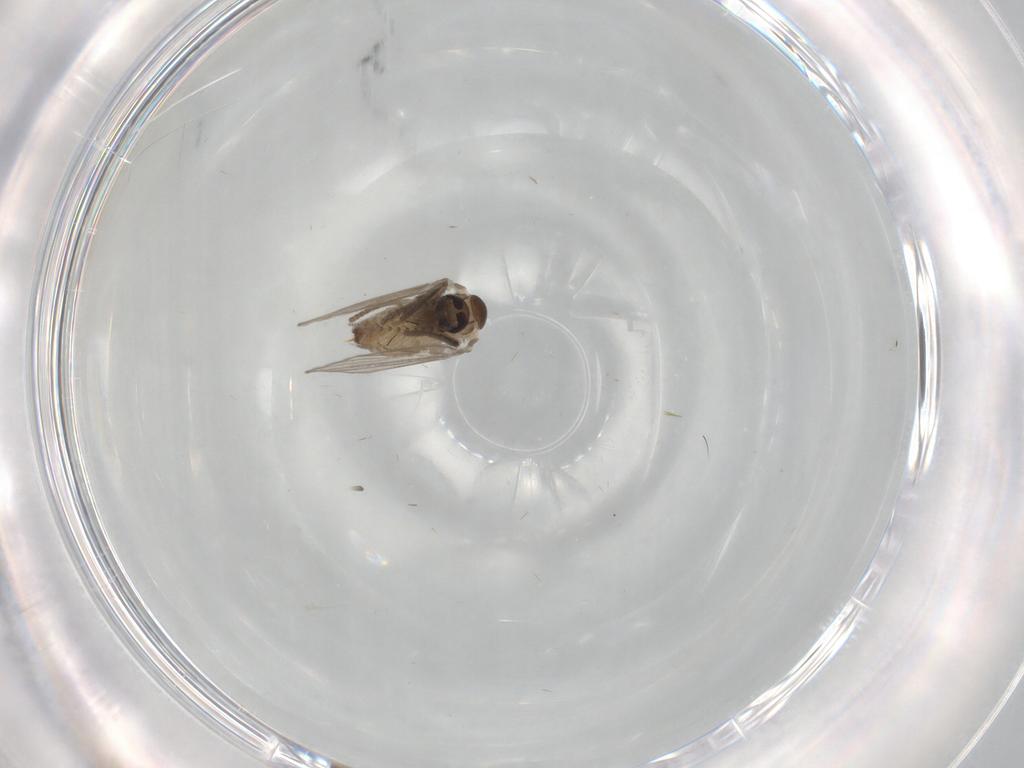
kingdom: Animalia
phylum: Arthropoda
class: Insecta
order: Diptera
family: Psychodidae
